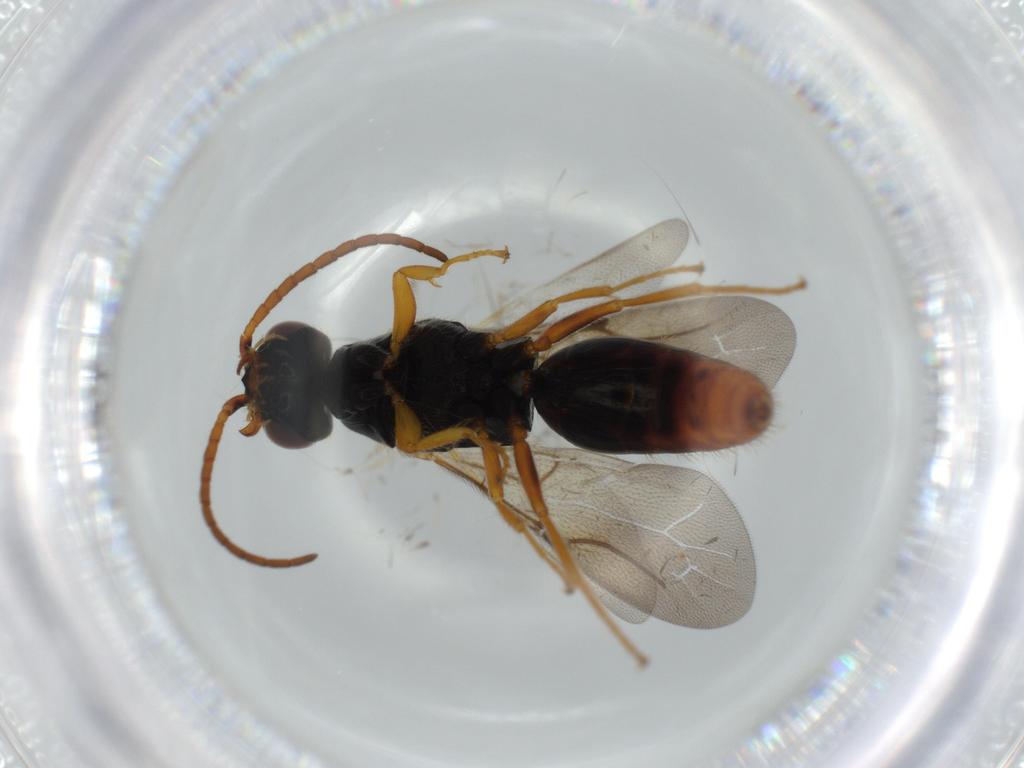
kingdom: Animalia
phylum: Arthropoda
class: Insecta
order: Hymenoptera
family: Bethylidae
